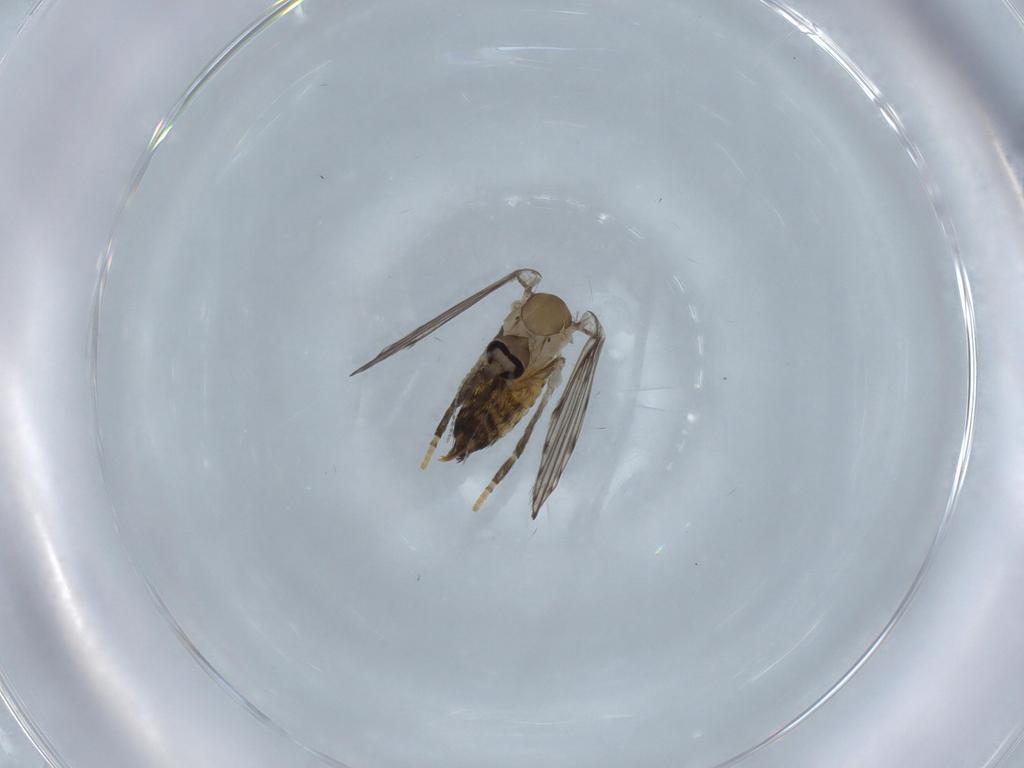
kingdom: Animalia
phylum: Arthropoda
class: Insecta
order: Diptera
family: Psychodidae
